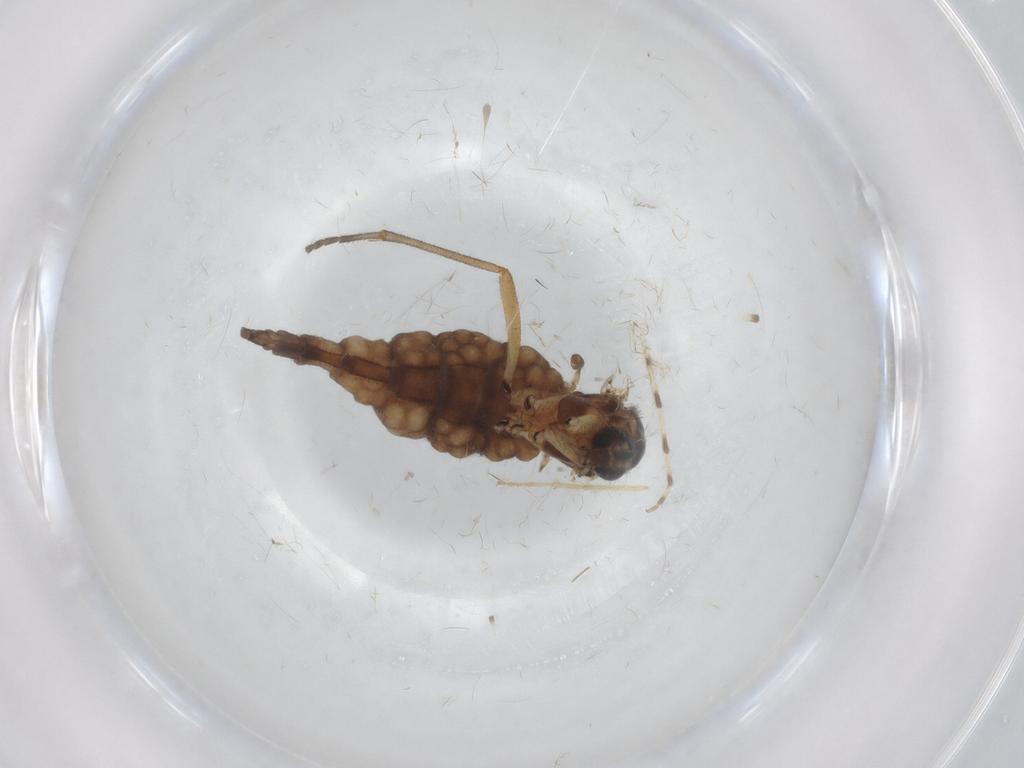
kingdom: Animalia
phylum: Arthropoda
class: Insecta
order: Diptera
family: Sciaridae
